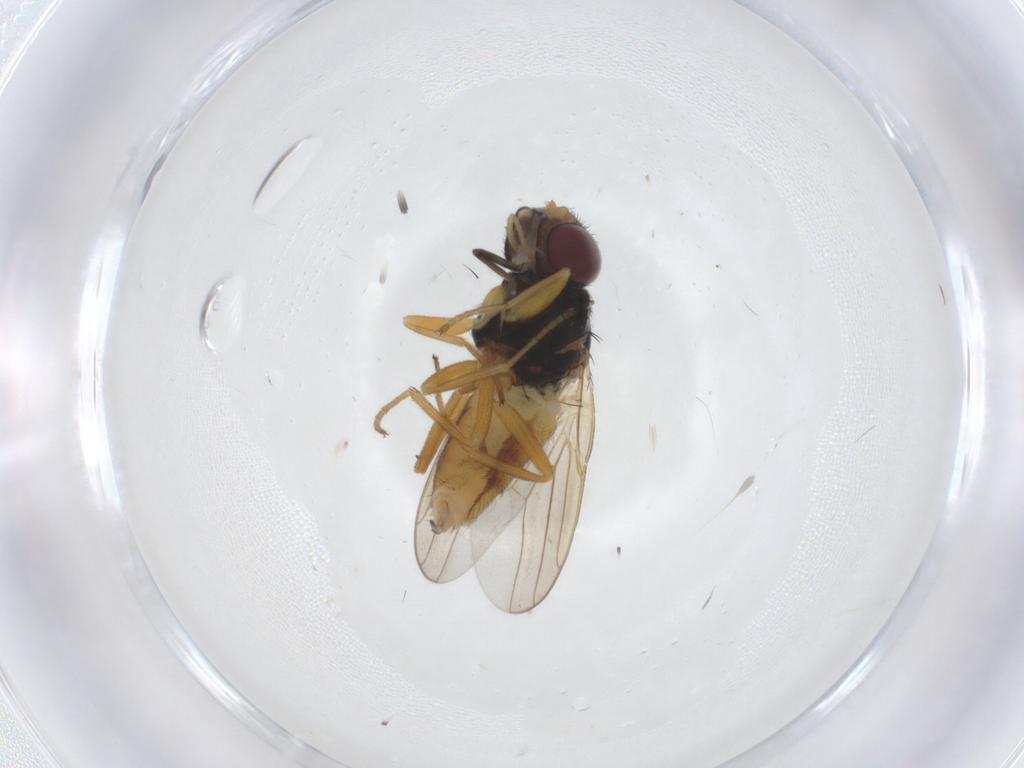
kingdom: Animalia
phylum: Arthropoda
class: Insecta
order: Diptera
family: Chloropidae
